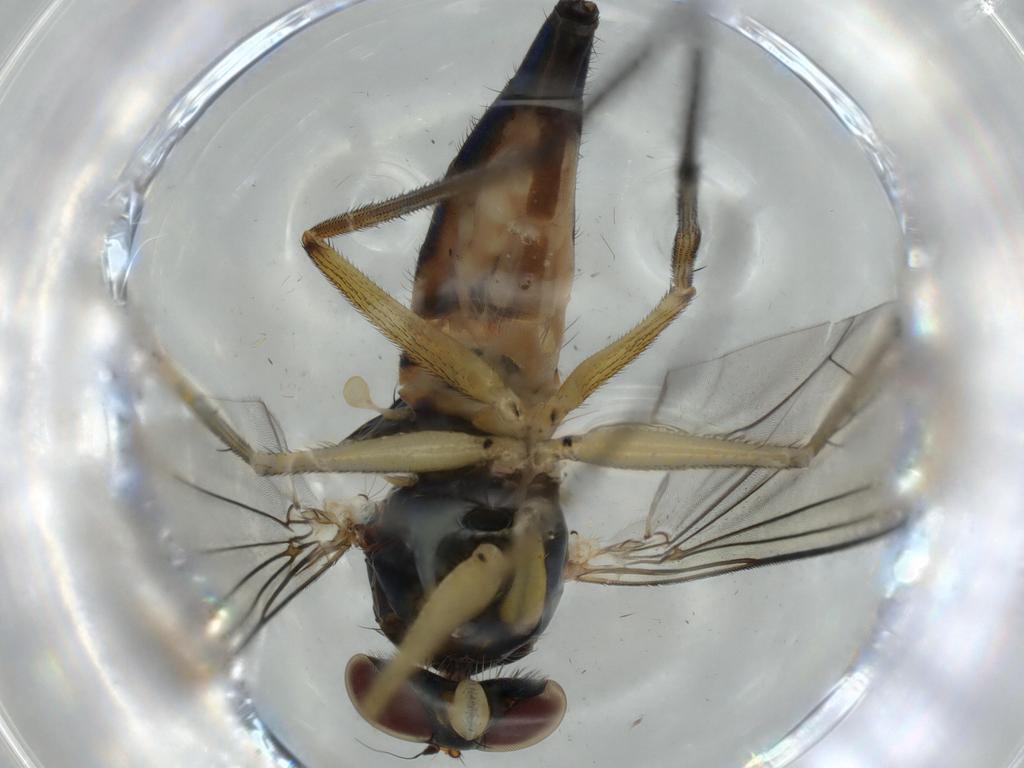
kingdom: Animalia
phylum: Arthropoda
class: Insecta
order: Diptera
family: Dolichopodidae
